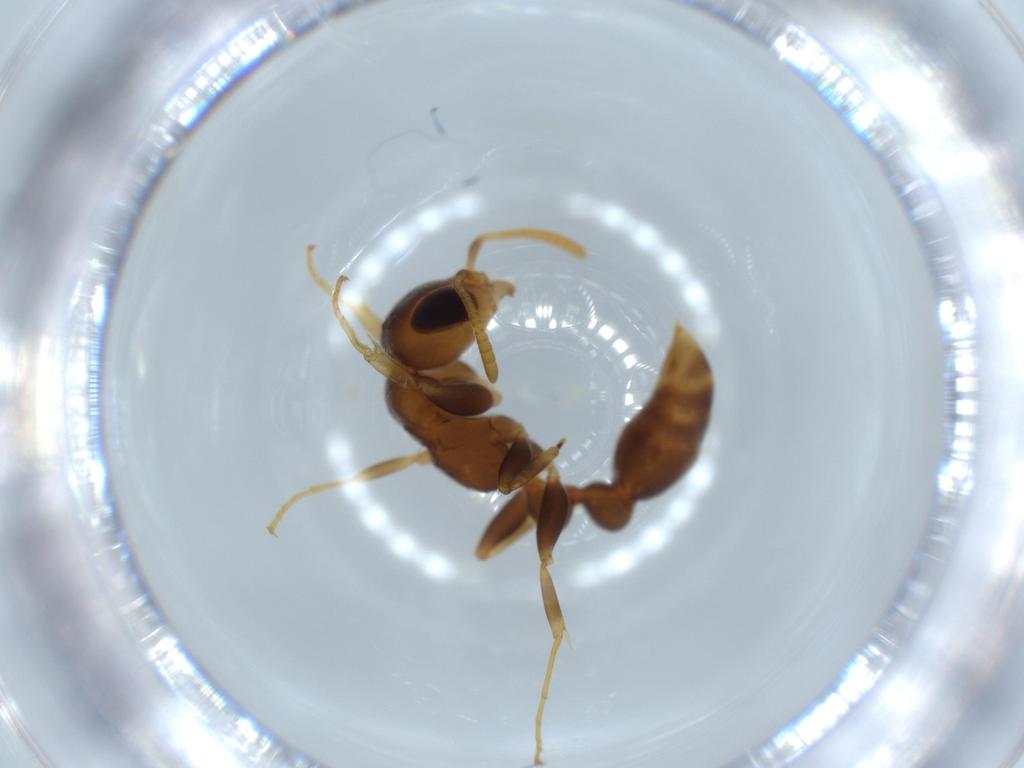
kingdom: Animalia
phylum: Arthropoda
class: Insecta
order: Hymenoptera
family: Formicidae
